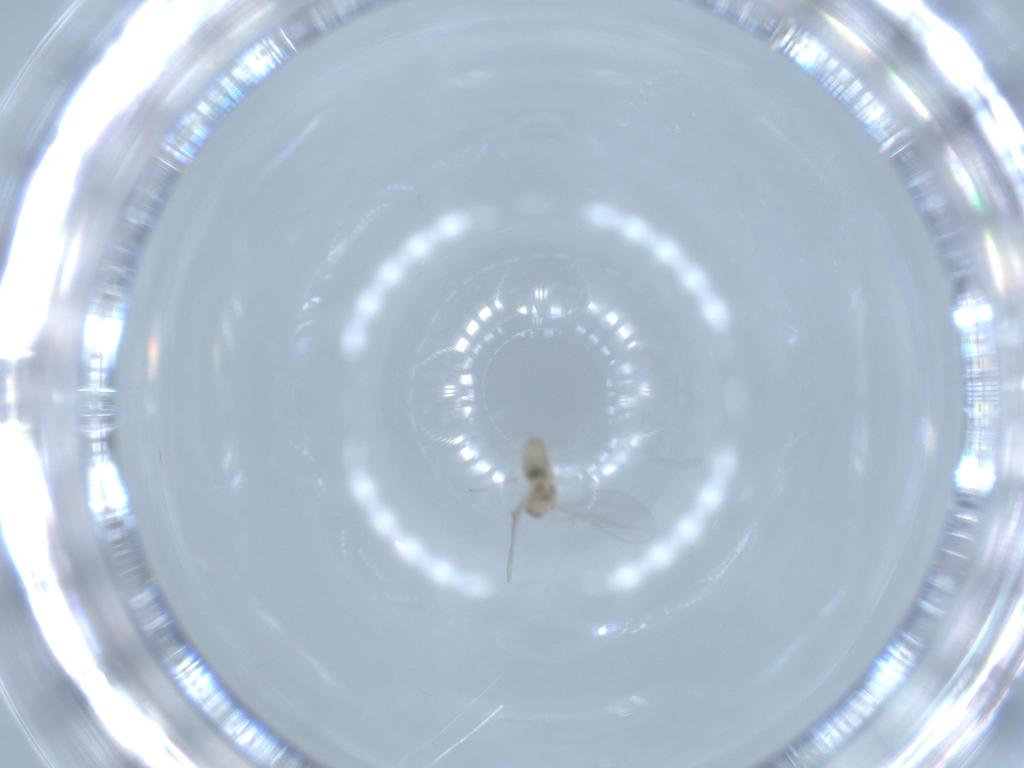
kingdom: Animalia
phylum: Arthropoda
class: Insecta
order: Diptera
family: Cecidomyiidae
